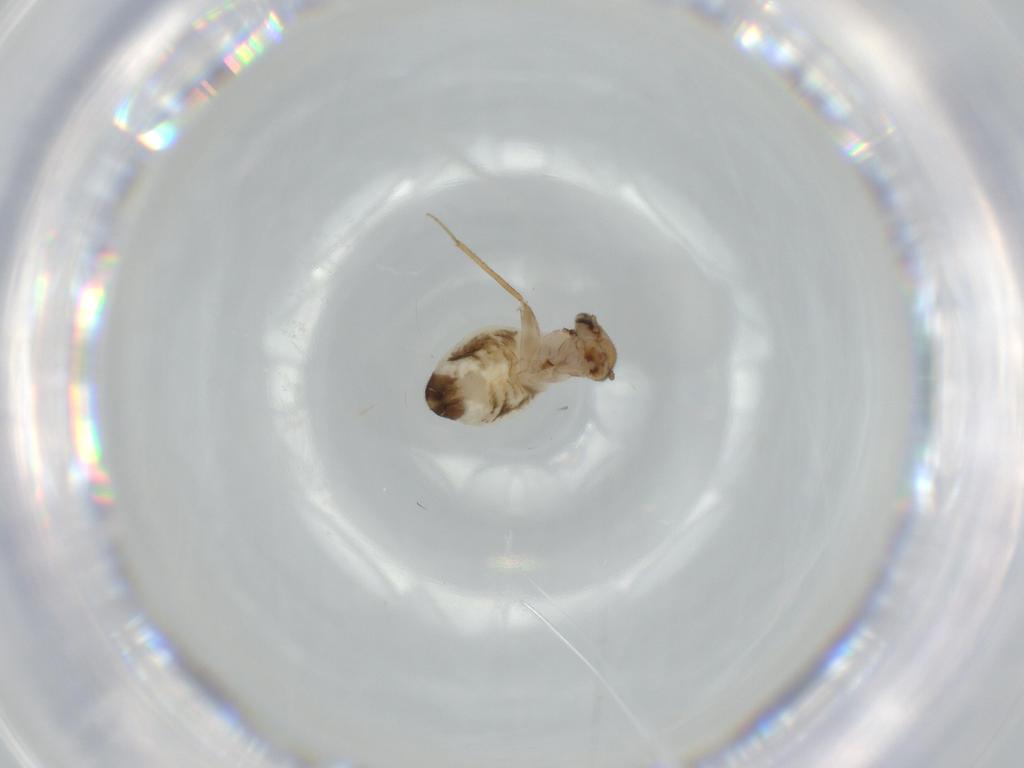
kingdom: Animalia
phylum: Arthropoda
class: Insecta
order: Psocodea
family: Lepidopsocidae
